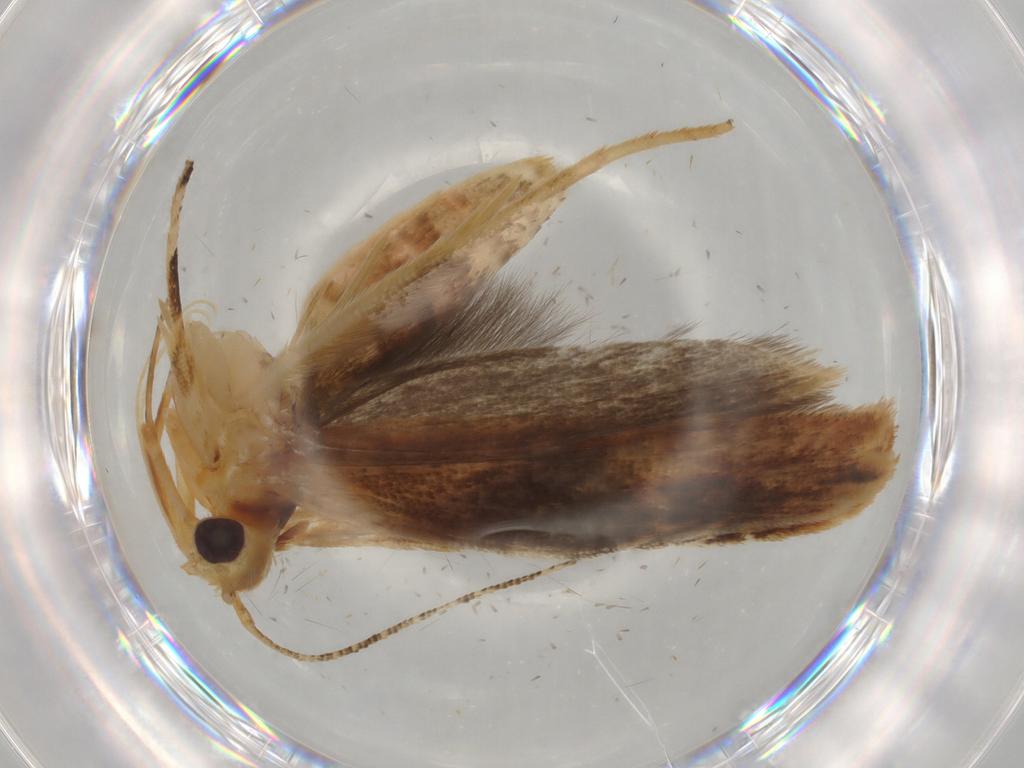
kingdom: Animalia
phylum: Arthropoda
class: Insecta
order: Lepidoptera
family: Gelechiidae
